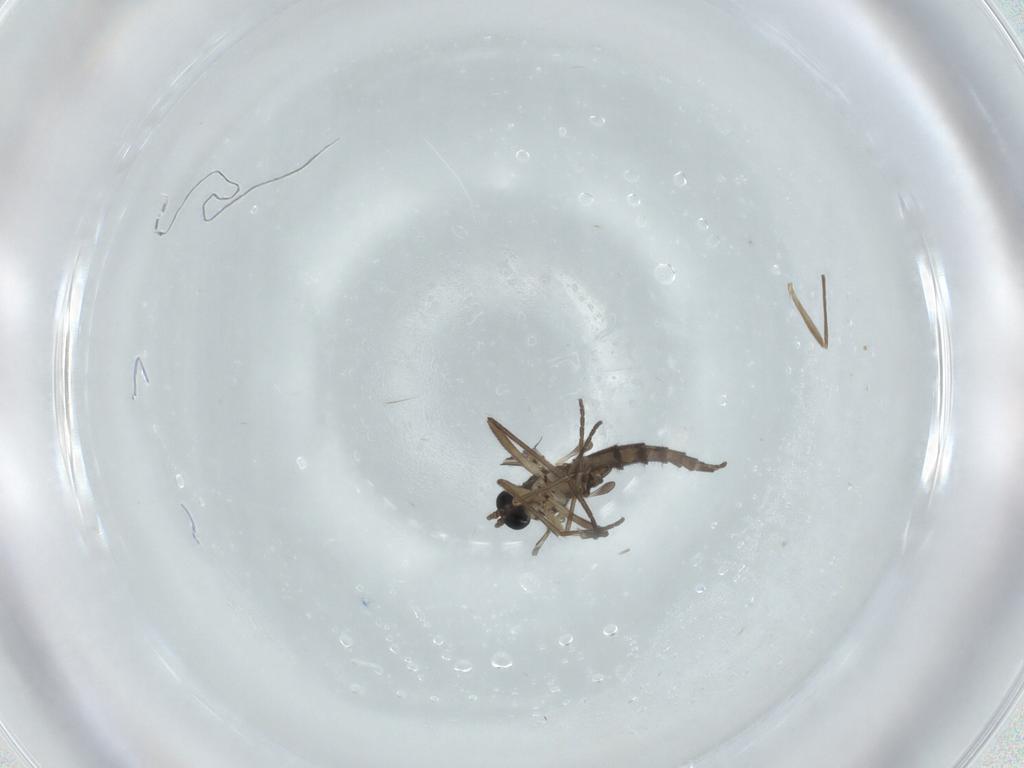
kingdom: Animalia
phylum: Arthropoda
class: Insecta
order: Diptera
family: Sciaridae
